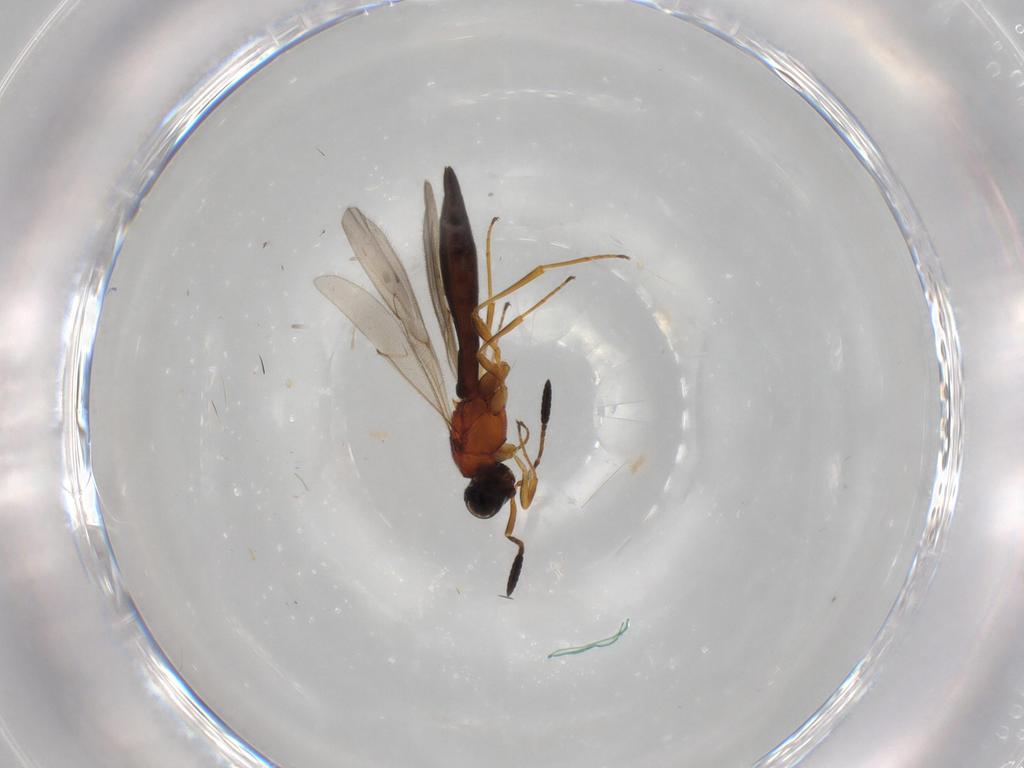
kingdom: Animalia
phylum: Arthropoda
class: Insecta
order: Hymenoptera
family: Scelionidae
